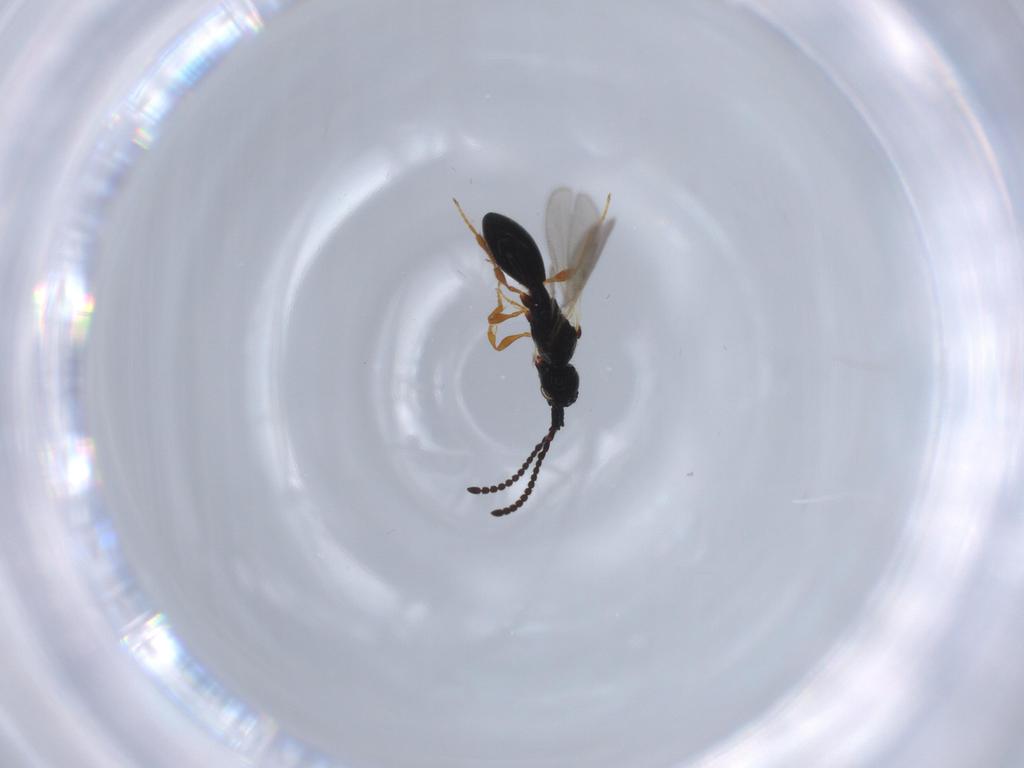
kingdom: Animalia
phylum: Arthropoda
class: Insecta
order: Hymenoptera
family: Diapriidae
